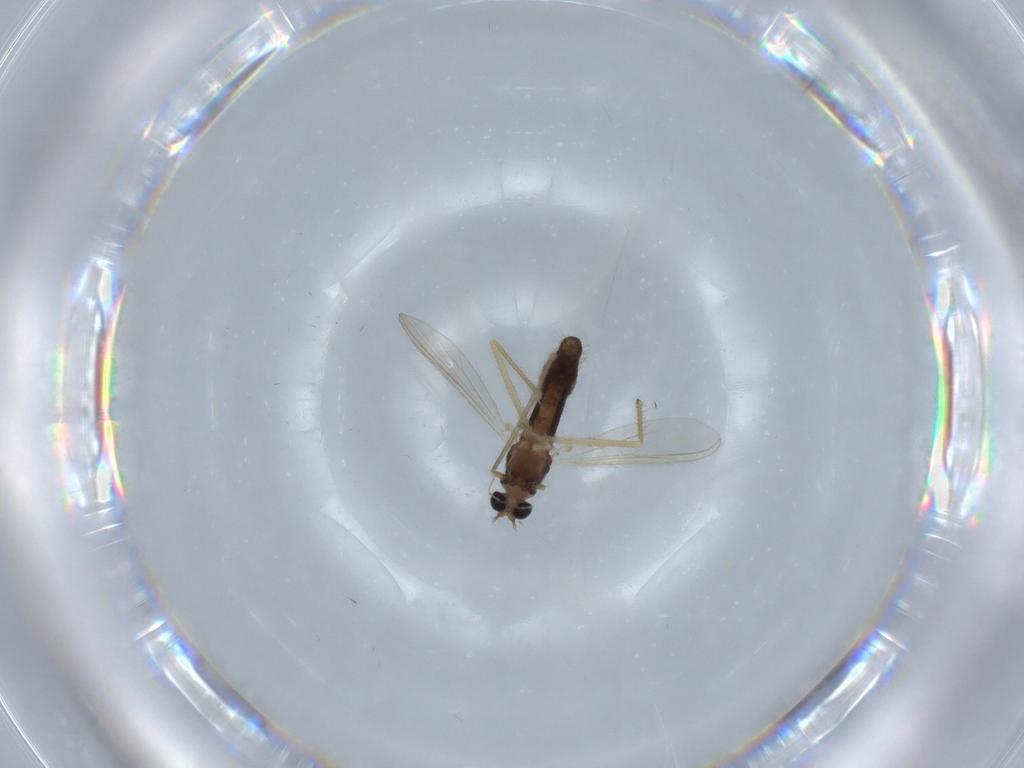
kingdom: Animalia
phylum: Arthropoda
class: Insecta
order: Diptera
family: Chironomidae
